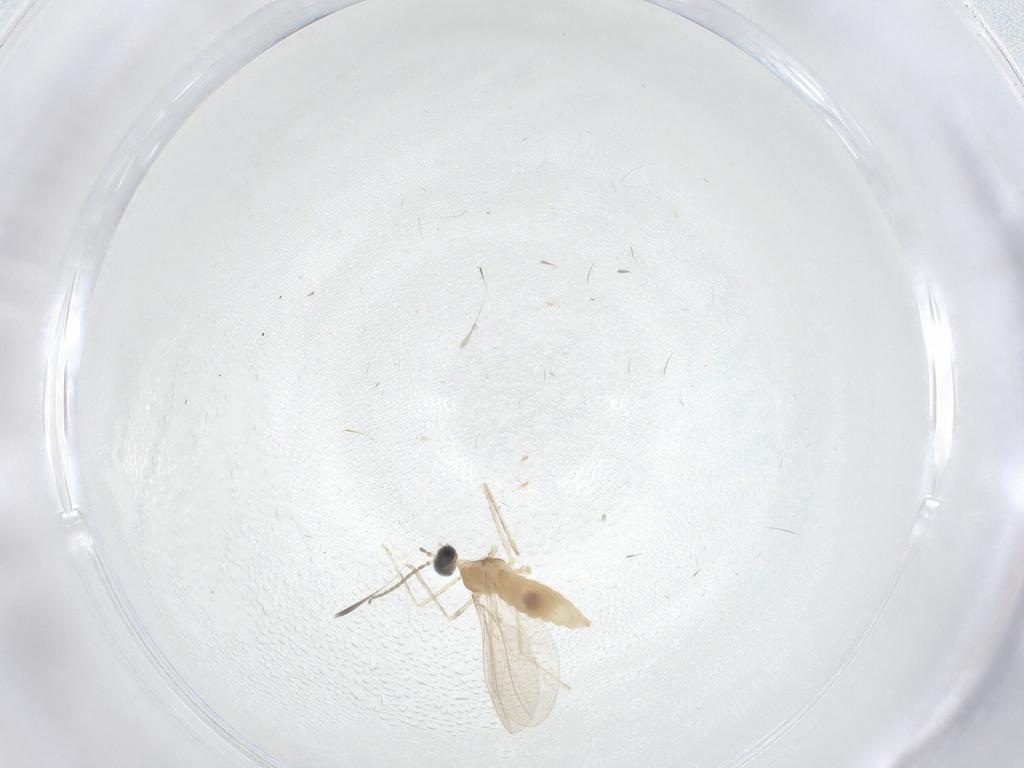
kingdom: Animalia
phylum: Arthropoda
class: Insecta
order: Diptera
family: Cecidomyiidae
